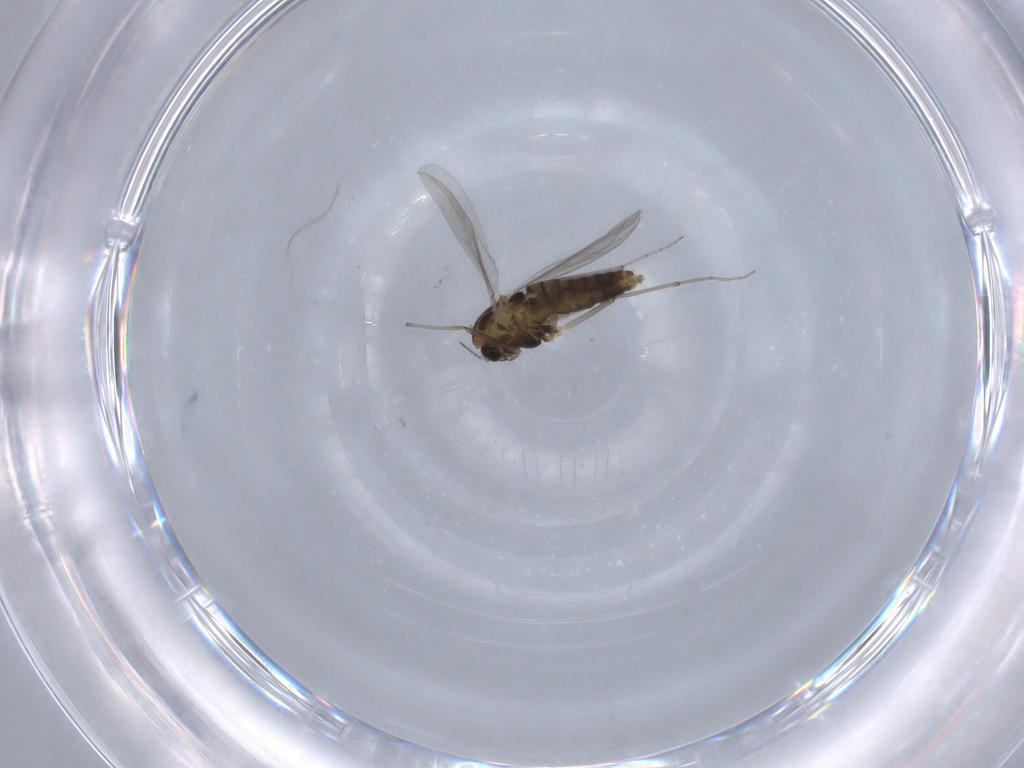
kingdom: Animalia
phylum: Arthropoda
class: Insecta
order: Diptera
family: Chironomidae
